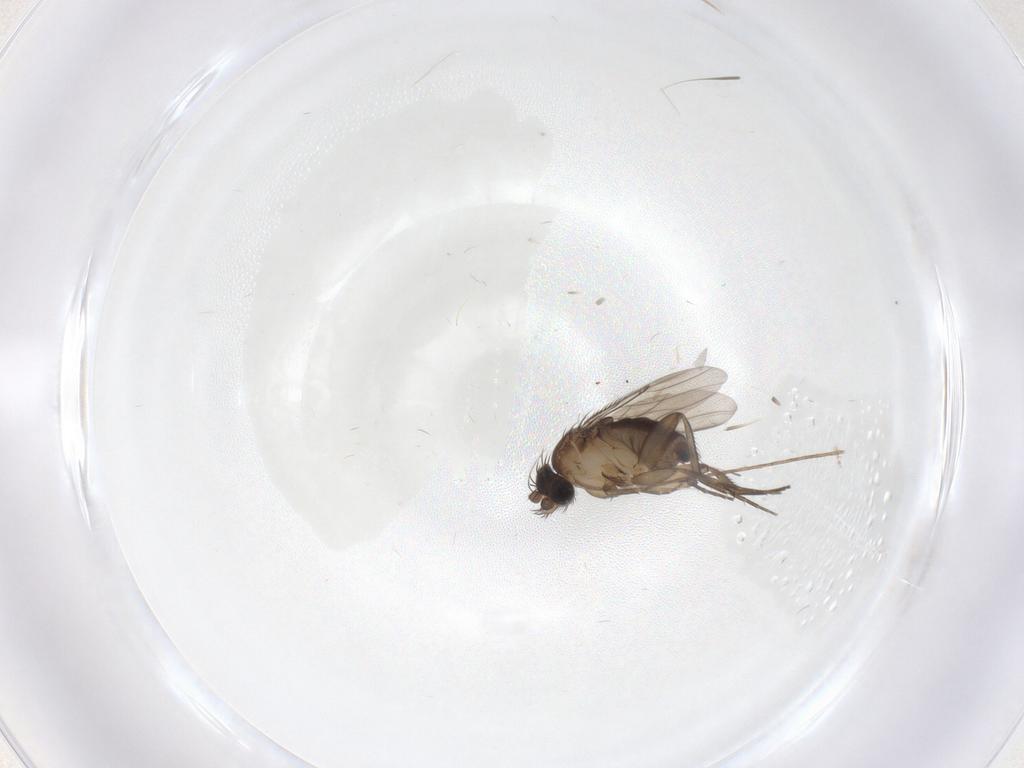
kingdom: Animalia
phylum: Arthropoda
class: Insecta
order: Diptera
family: Phoridae
